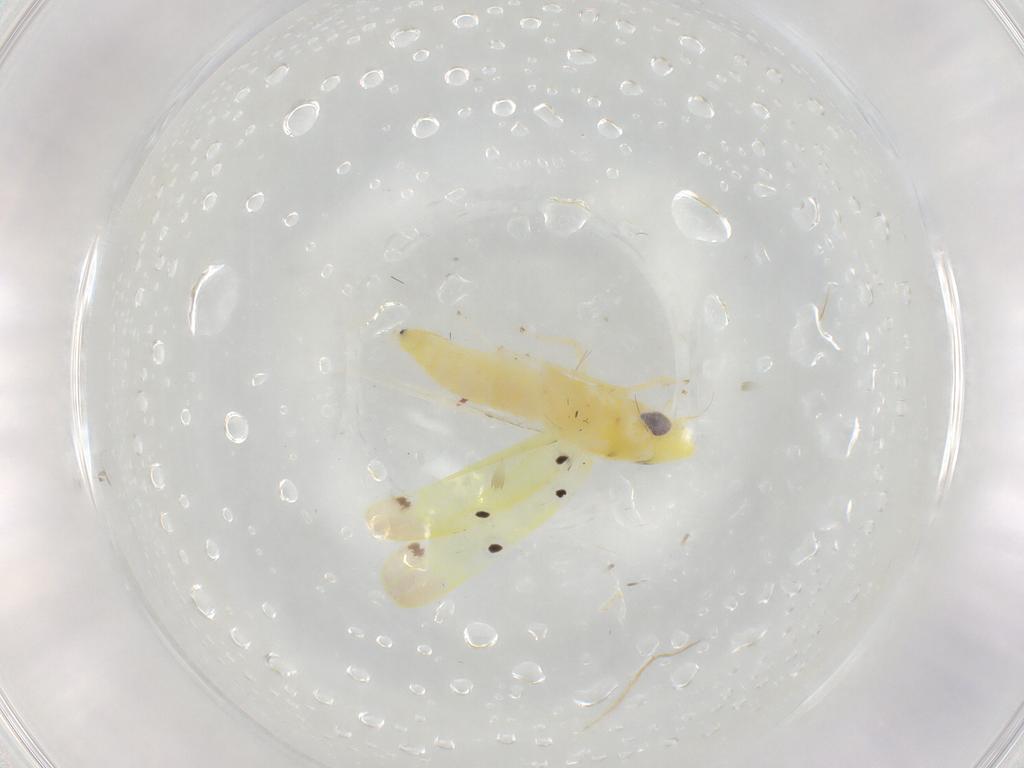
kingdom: Animalia
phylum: Arthropoda
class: Insecta
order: Hemiptera
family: Cicadellidae
